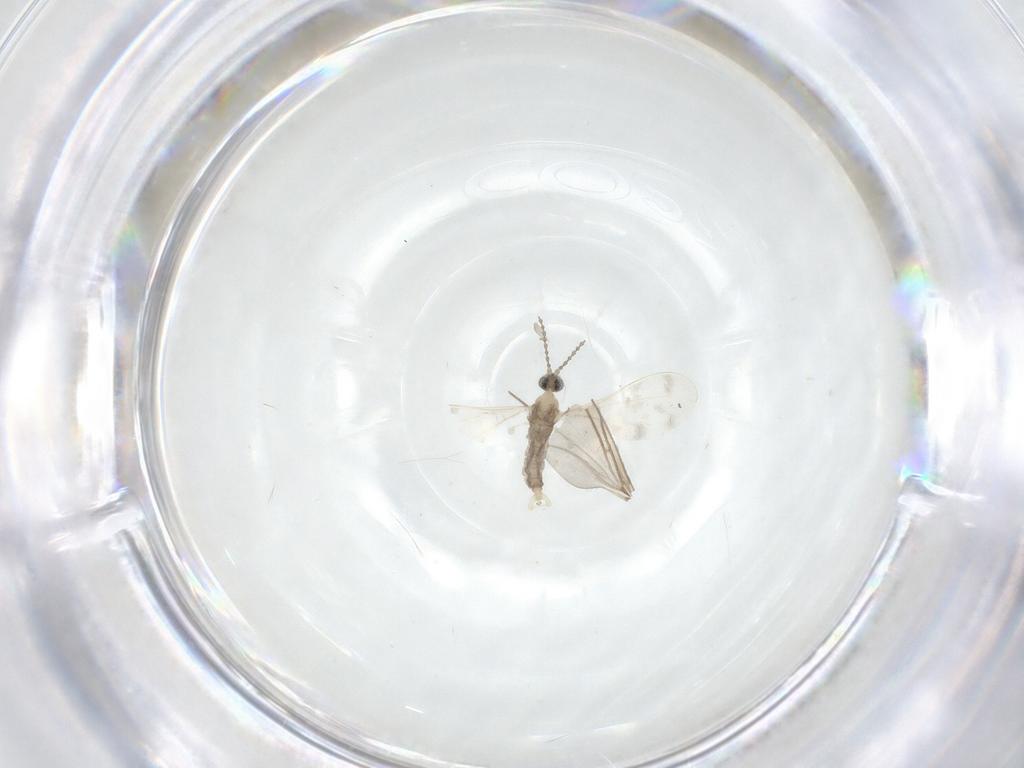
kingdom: Animalia
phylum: Arthropoda
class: Insecta
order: Diptera
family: Cecidomyiidae
